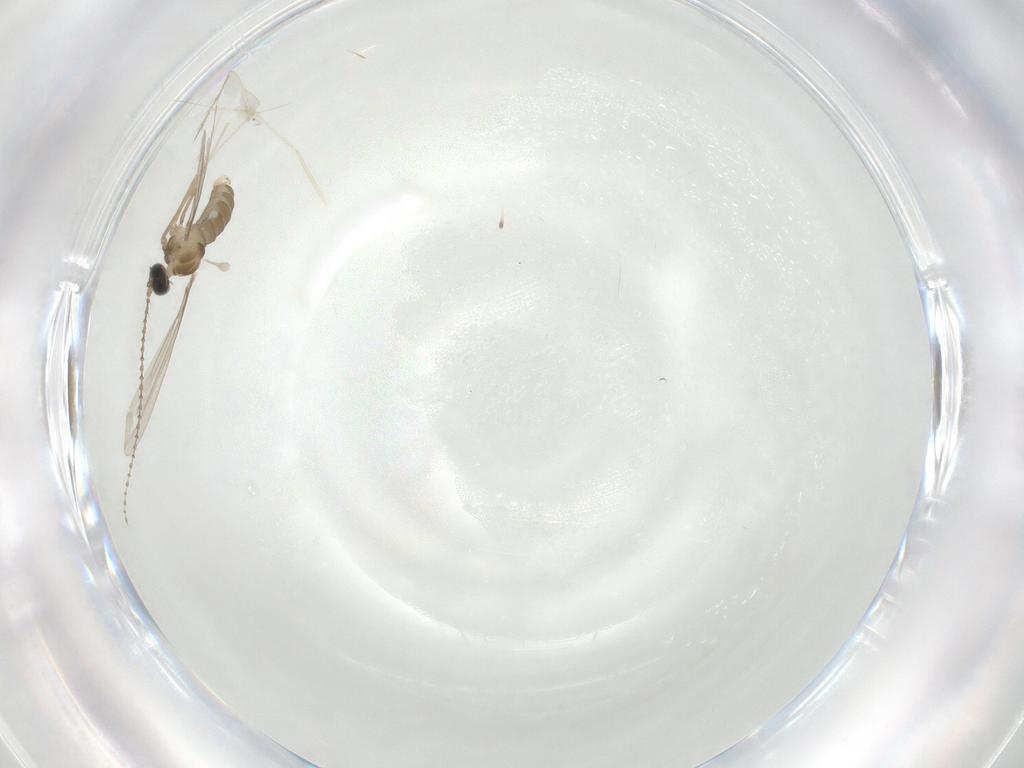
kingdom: Animalia
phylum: Arthropoda
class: Insecta
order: Diptera
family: Cecidomyiidae
